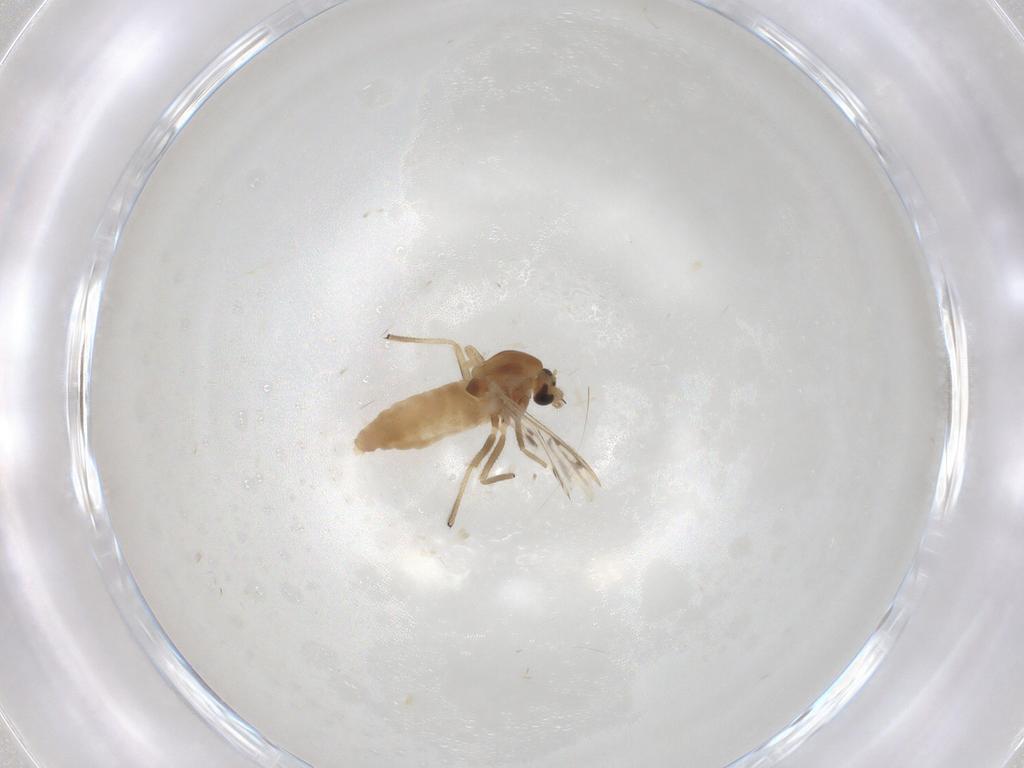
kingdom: Animalia
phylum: Arthropoda
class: Insecta
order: Diptera
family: Chironomidae
